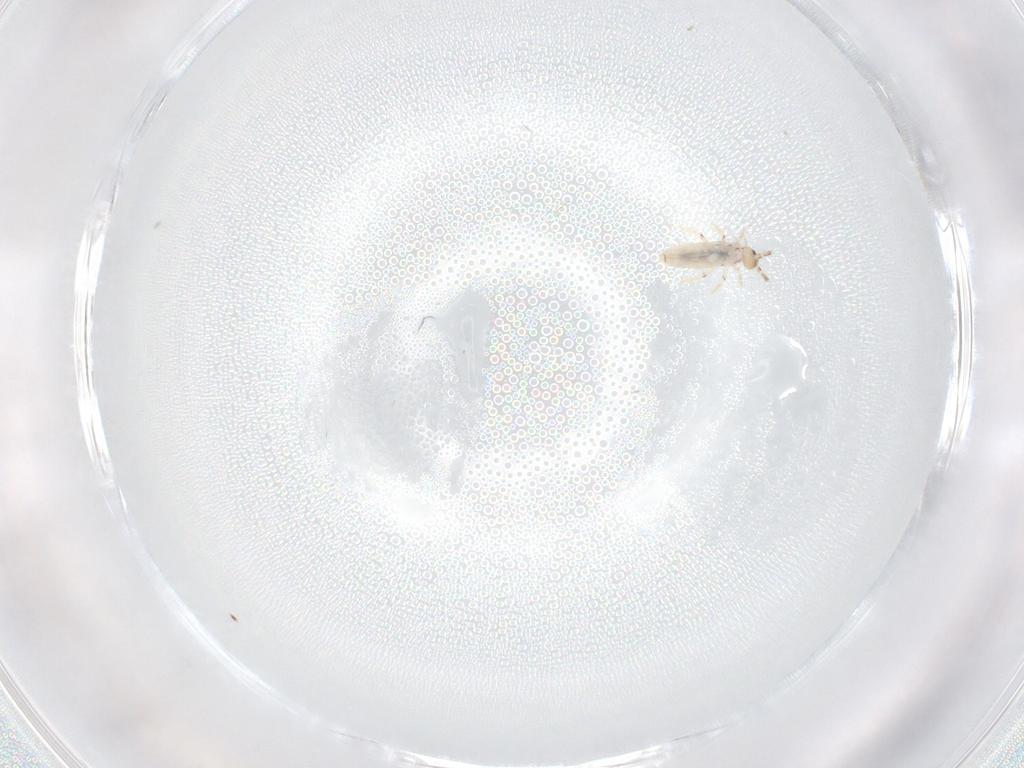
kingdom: Animalia
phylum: Arthropoda
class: Collembola
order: Entomobryomorpha
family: Entomobryidae
